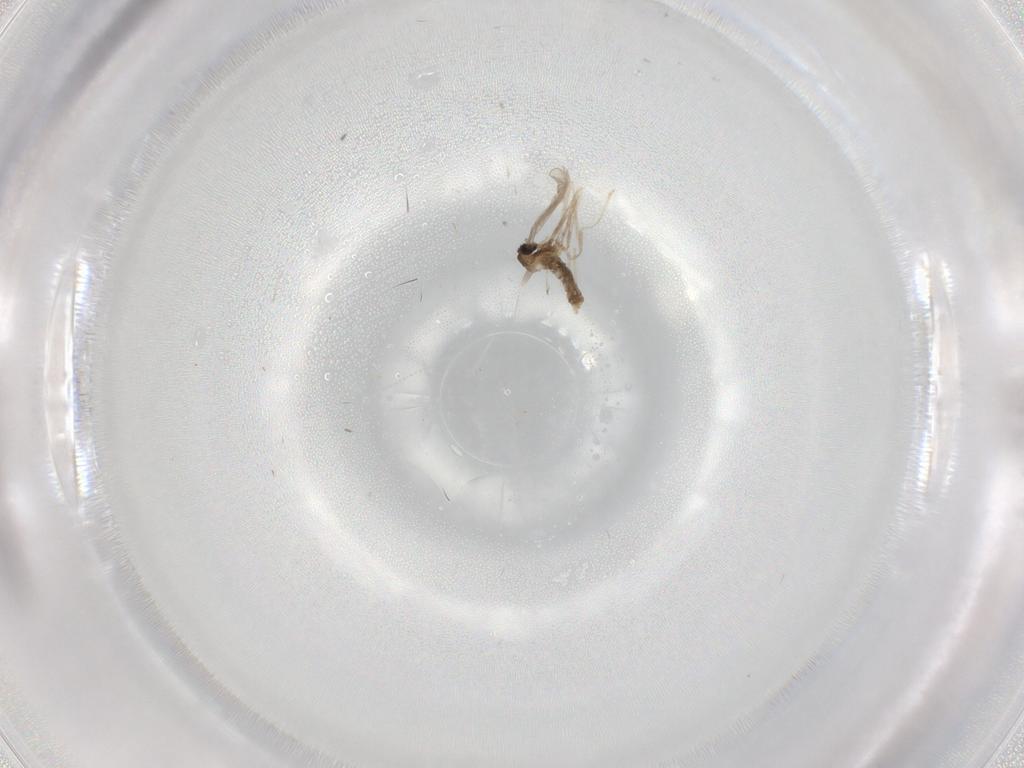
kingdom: Animalia
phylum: Arthropoda
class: Insecta
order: Diptera
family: Cecidomyiidae
